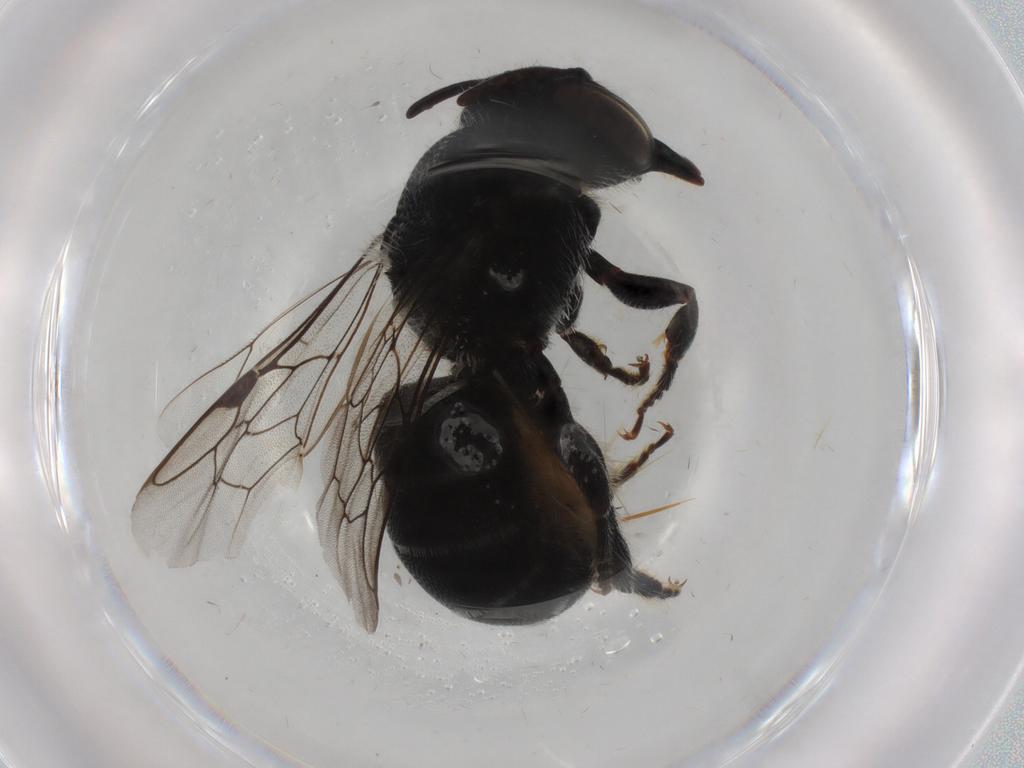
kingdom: Animalia
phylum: Arthropoda
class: Insecta
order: Hymenoptera
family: Megachilidae
